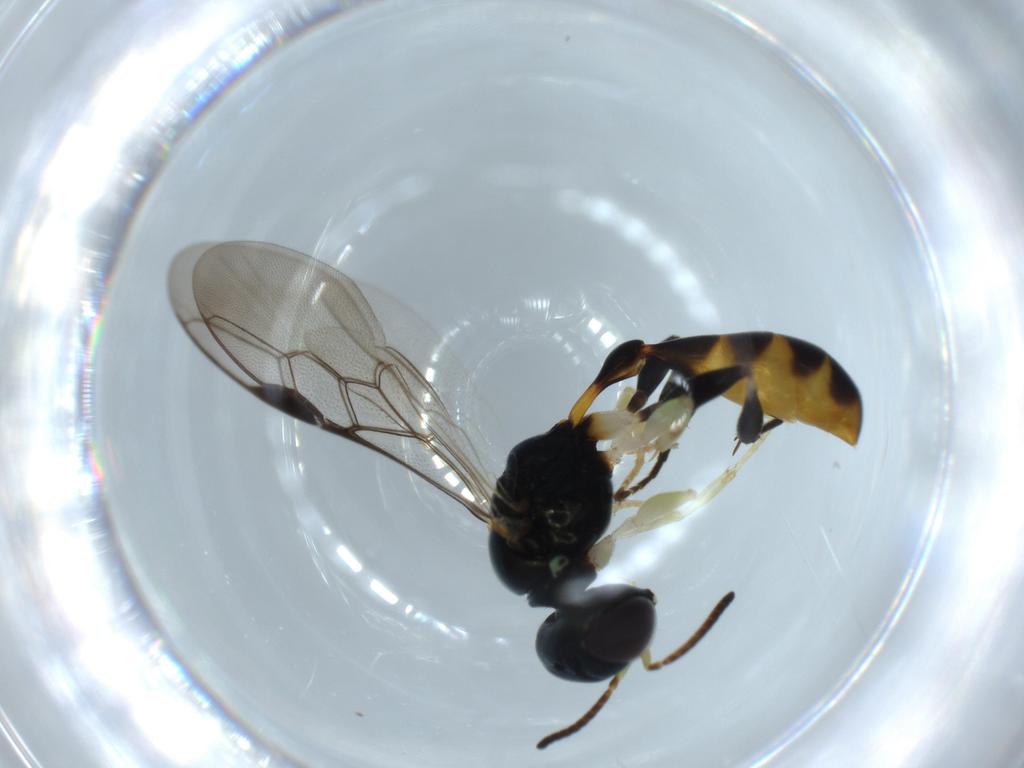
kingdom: Animalia
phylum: Arthropoda
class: Insecta
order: Hymenoptera
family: Crabronidae
